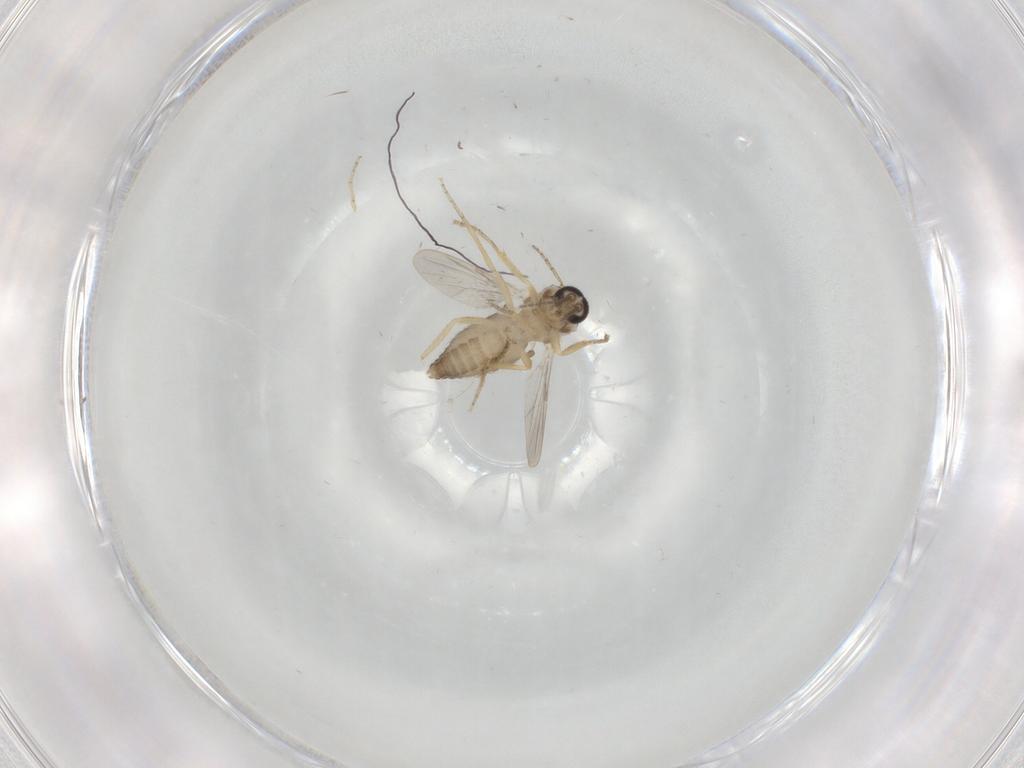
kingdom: Animalia
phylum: Arthropoda
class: Insecta
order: Diptera
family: Ceratopogonidae
